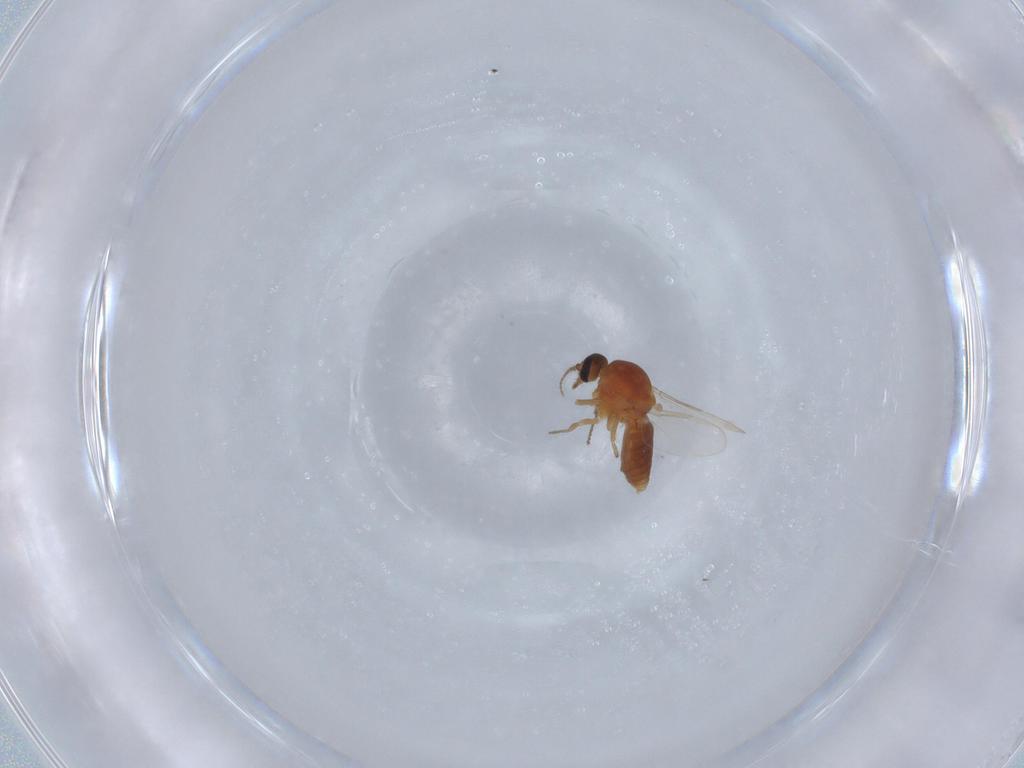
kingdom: Animalia
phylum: Arthropoda
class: Insecta
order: Diptera
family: Ceratopogonidae
